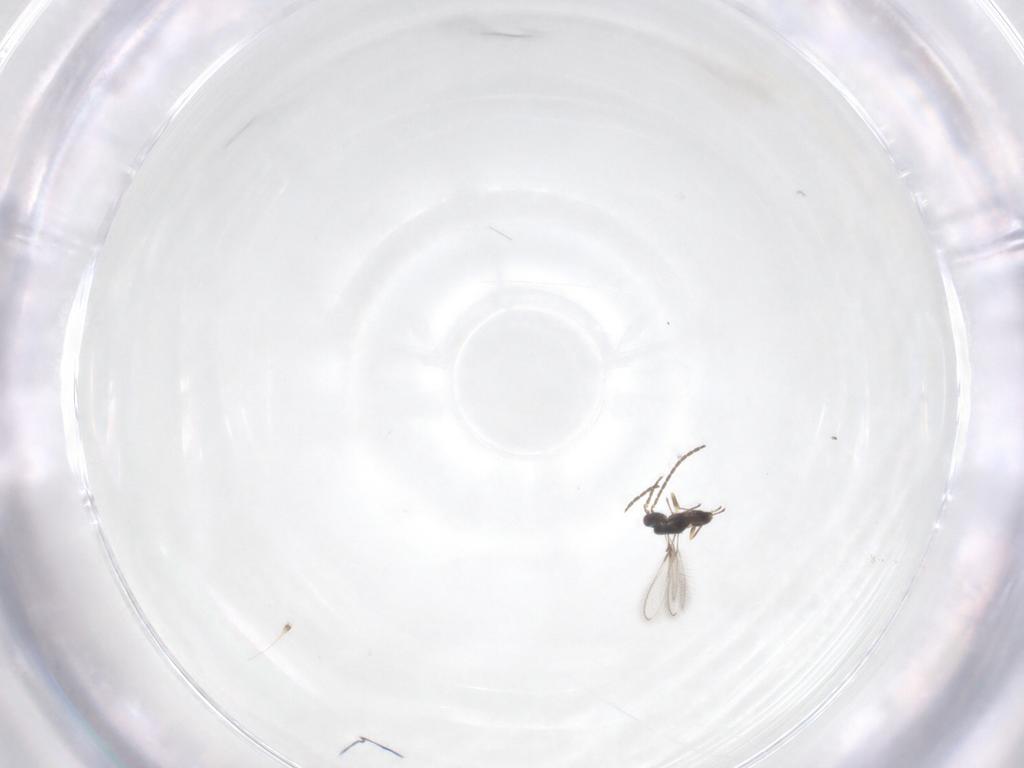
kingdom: Animalia
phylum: Arthropoda
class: Insecta
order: Hymenoptera
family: Mymaridae
